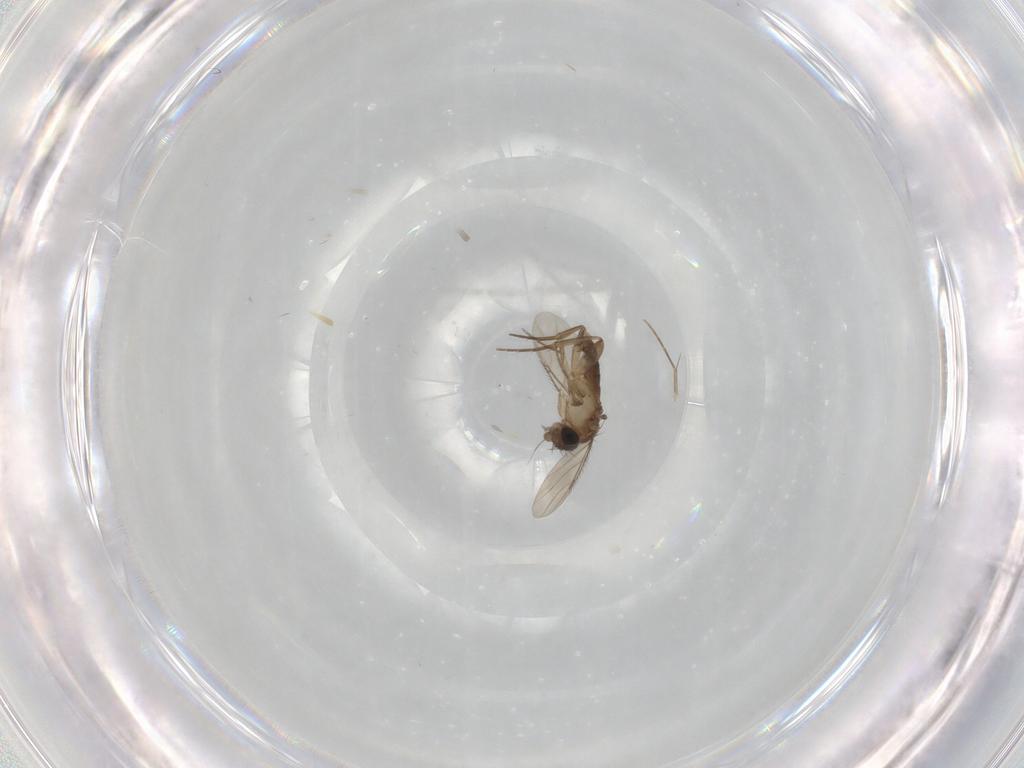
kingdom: Animalia
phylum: Arthropoda
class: Insecta
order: Diptera
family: Phoridae
